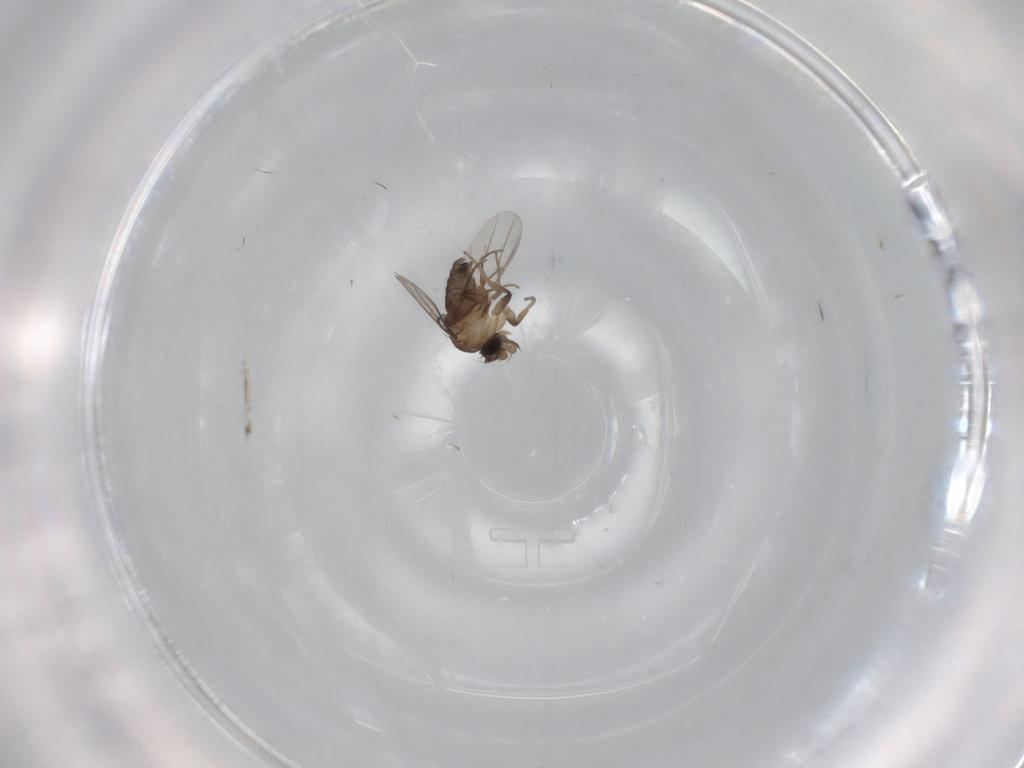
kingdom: Animalia
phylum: Arthropoda
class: Insecta
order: Diptera
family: Phoridae
